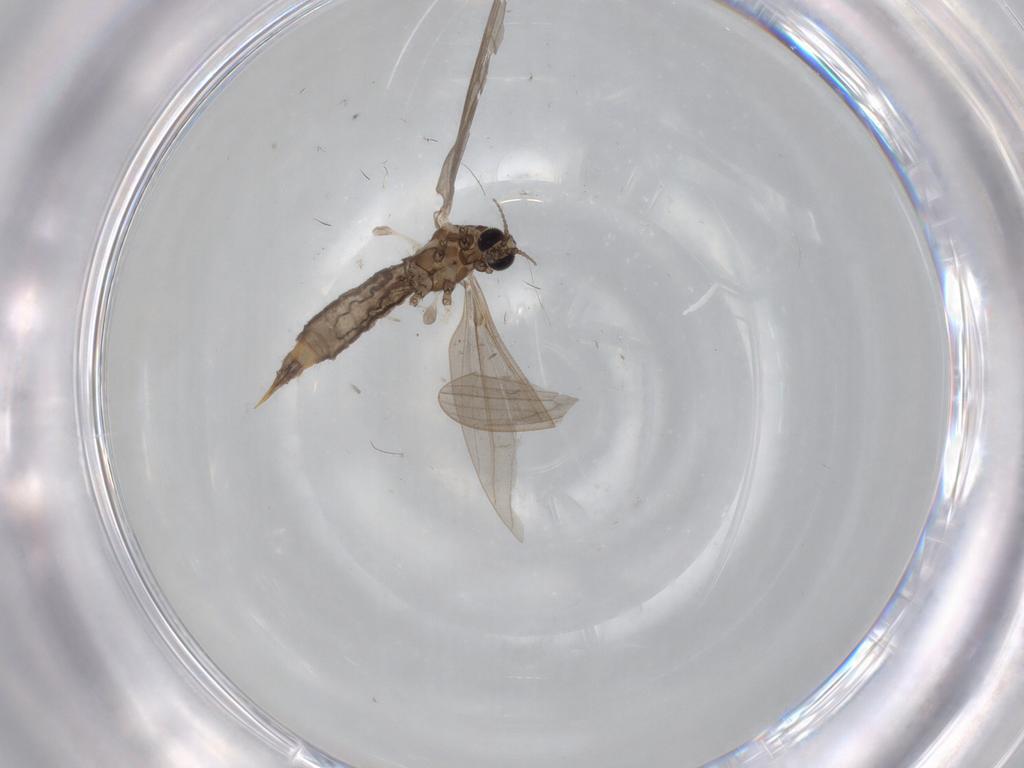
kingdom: Animalia
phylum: Arthropoda
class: Insecta
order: Diptera
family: Limoniidae
